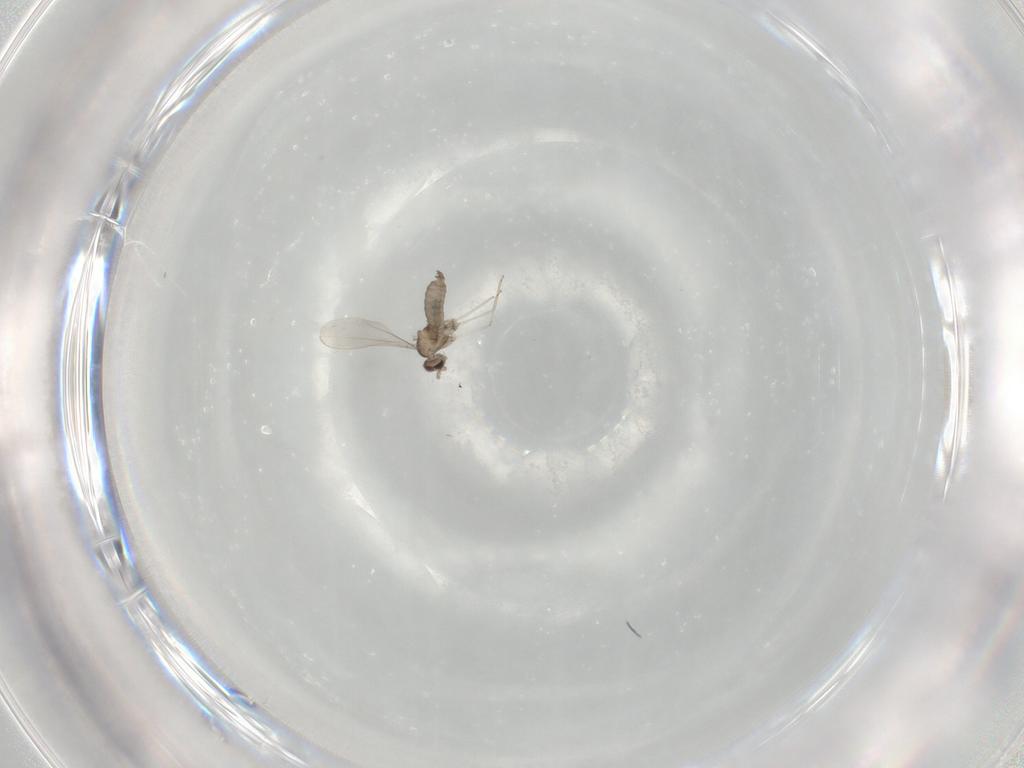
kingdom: Animalia
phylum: Arthropoda
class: Insecta
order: Diptera
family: Cecidomyiidae
